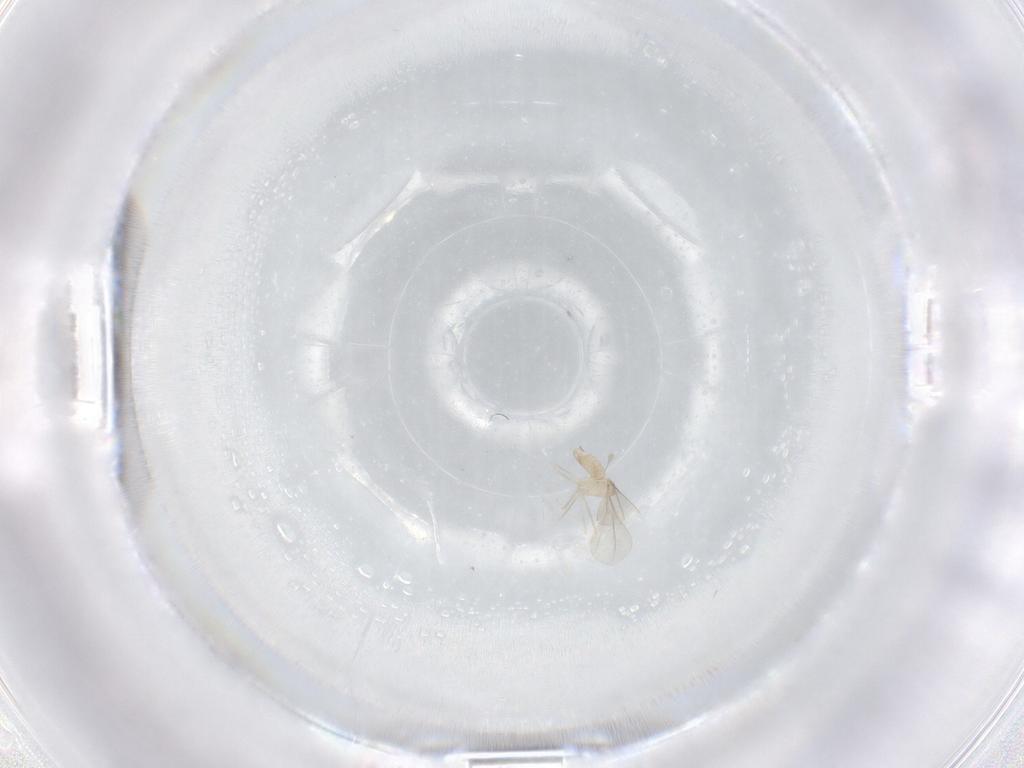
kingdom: Animalia
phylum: Arthropoda
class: Insecta
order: Diptera
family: Cecidomyiidae
